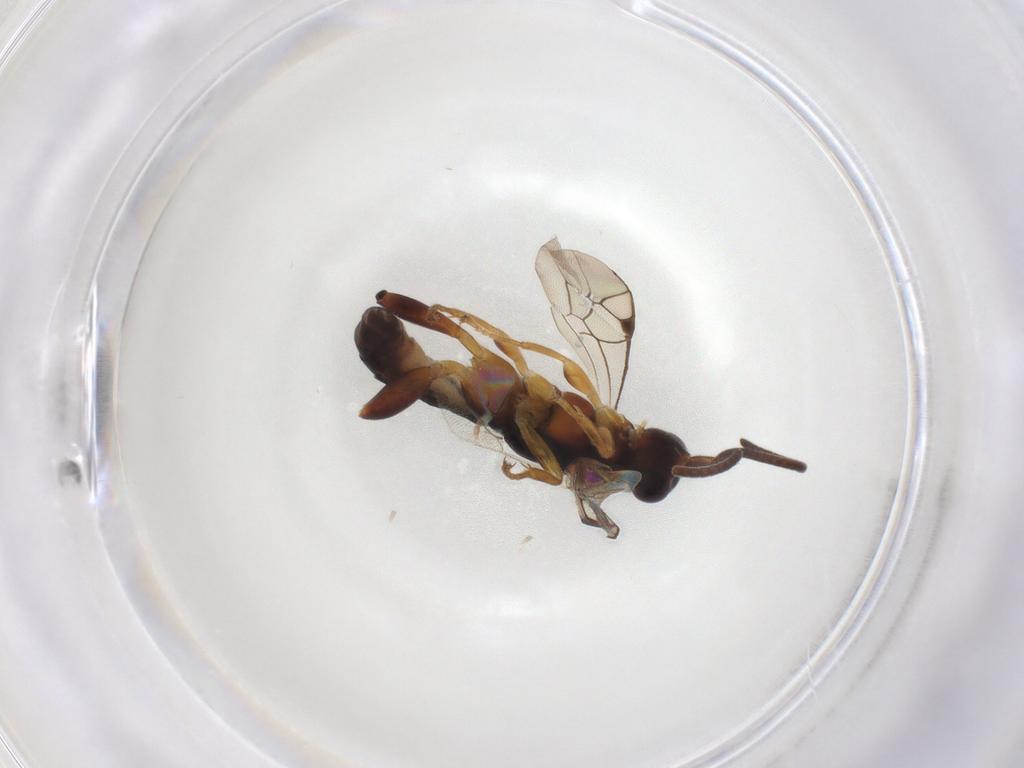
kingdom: Animalia
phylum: Arthropoda
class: Insecta
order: Hymenoptera
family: Ichneumonidae
